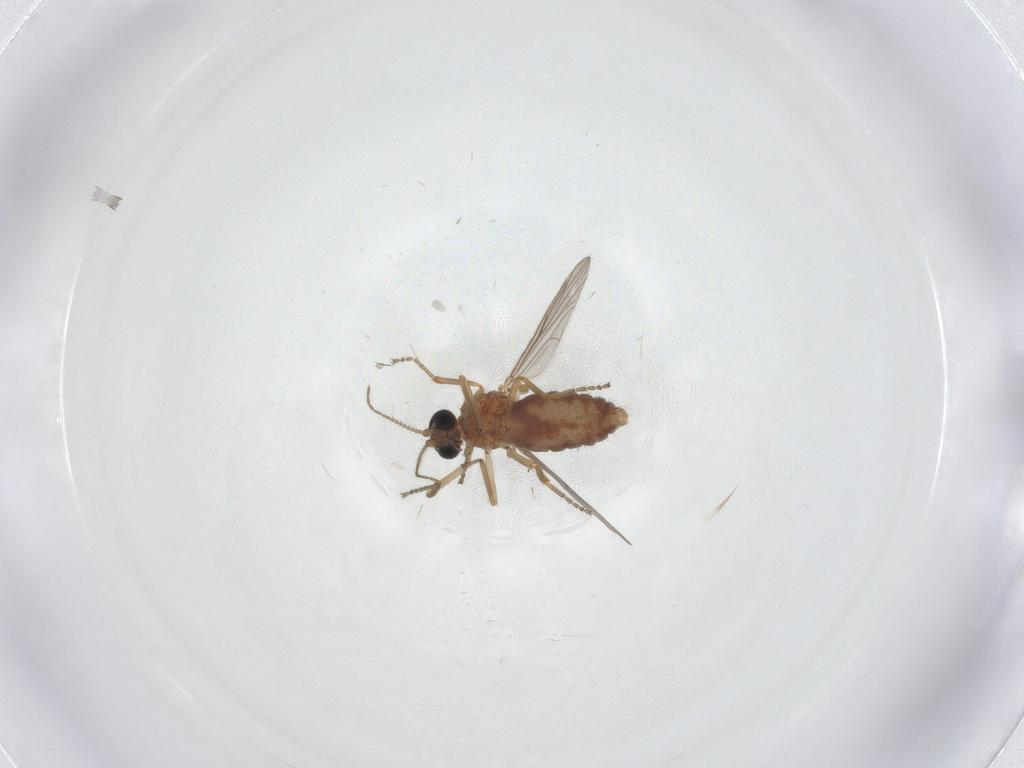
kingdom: Animalia
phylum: Arthropoda
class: Insecta
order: Diptera
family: Ceratopogonidae
